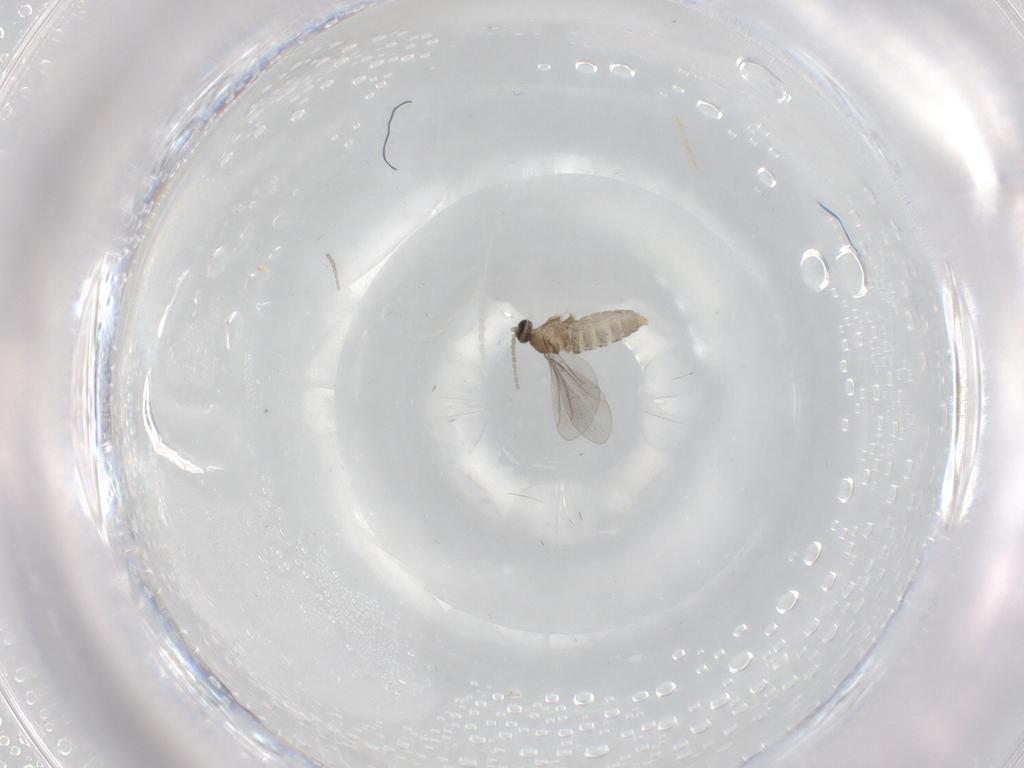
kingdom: Animalia
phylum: Arthropoda
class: Insecta
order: Diptera
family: Cecidomyiidae
